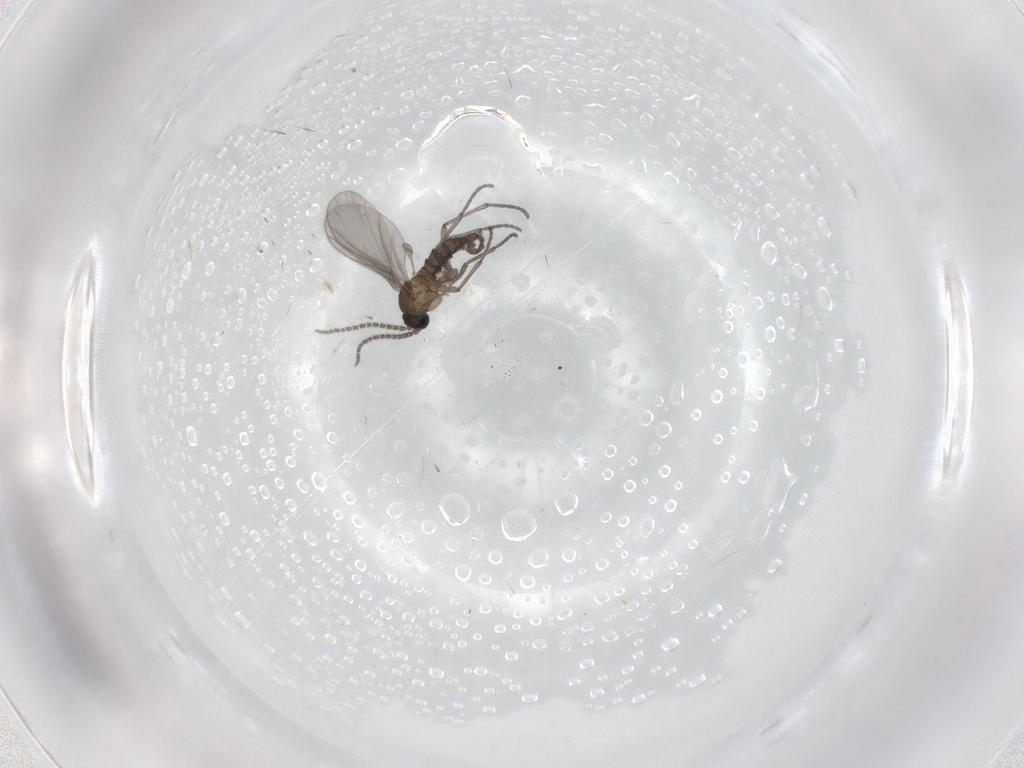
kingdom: Animalia
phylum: Arthropoda
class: Insecta
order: Diptera
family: Sciaridae
